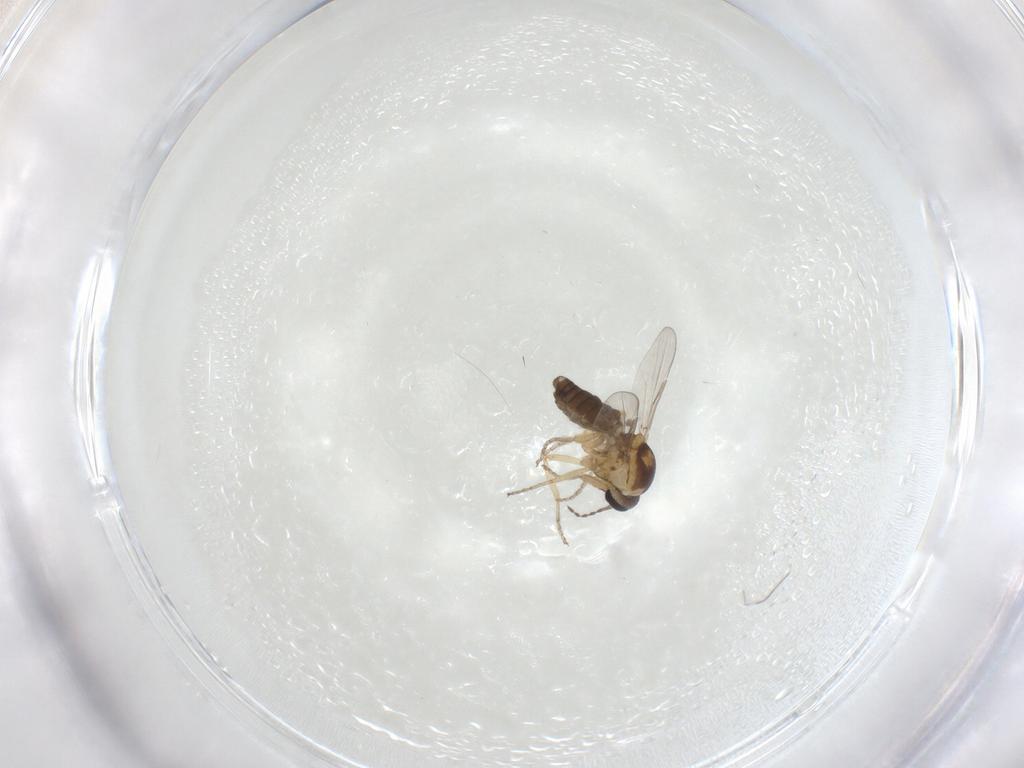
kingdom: Animalia
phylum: Arthropoda
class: Insecta
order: Diptera
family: Ceratopogonidae
